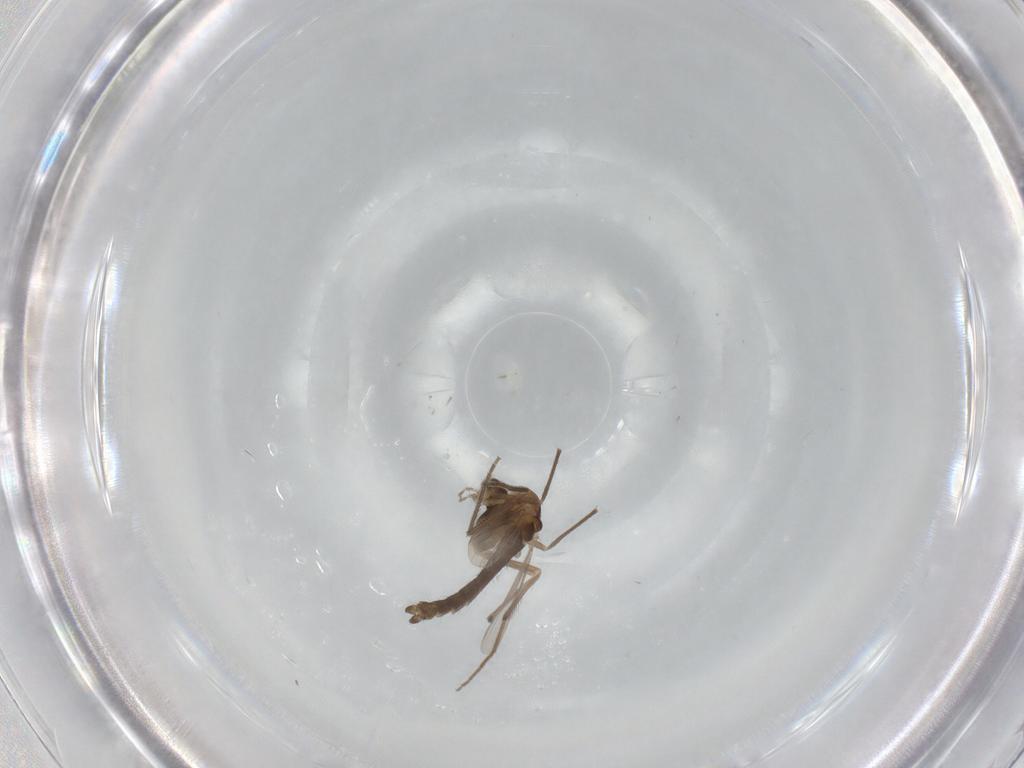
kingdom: Animalia
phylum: Arthropoda
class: Insecta
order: Diptera
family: Chironomidae
